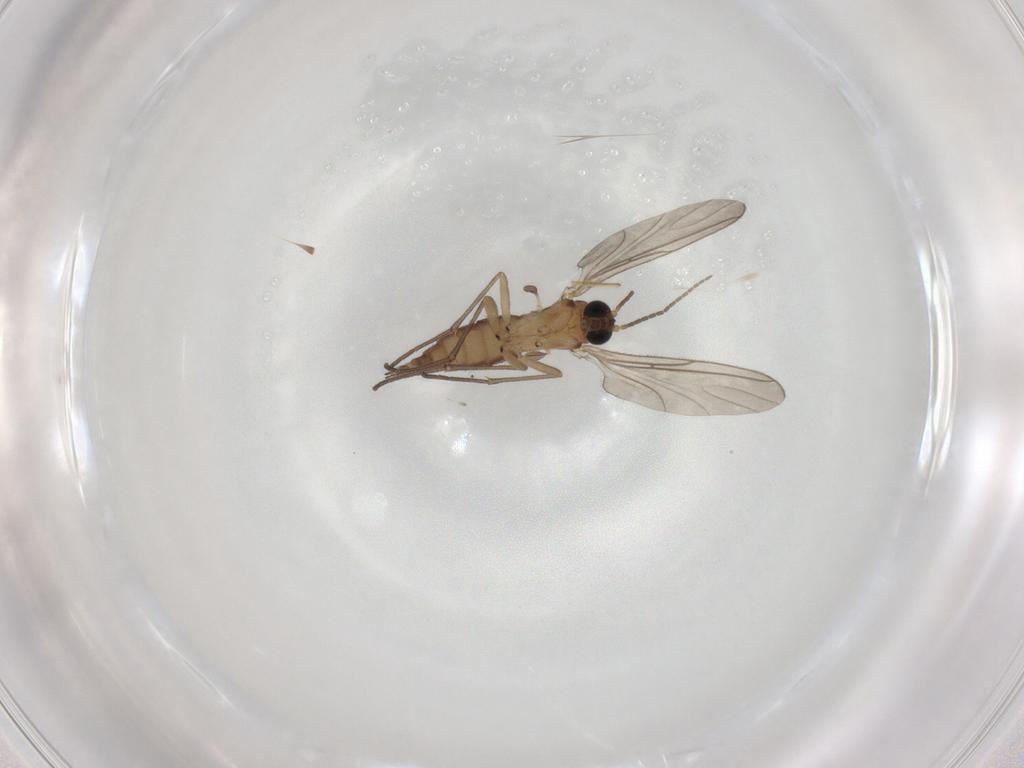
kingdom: Animalia
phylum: Arthropoda
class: Insecta
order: Diptera
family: Sciaridae
